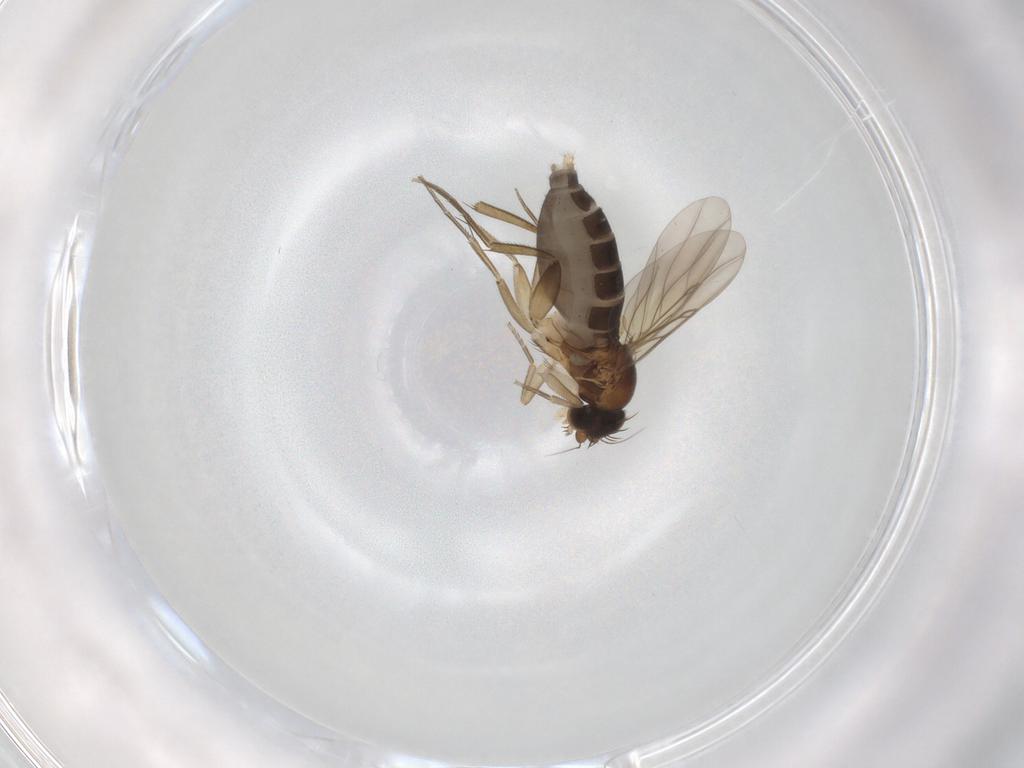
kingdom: Animalia
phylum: Arthropoda
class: Insecta
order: Diptera
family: Phoridae
